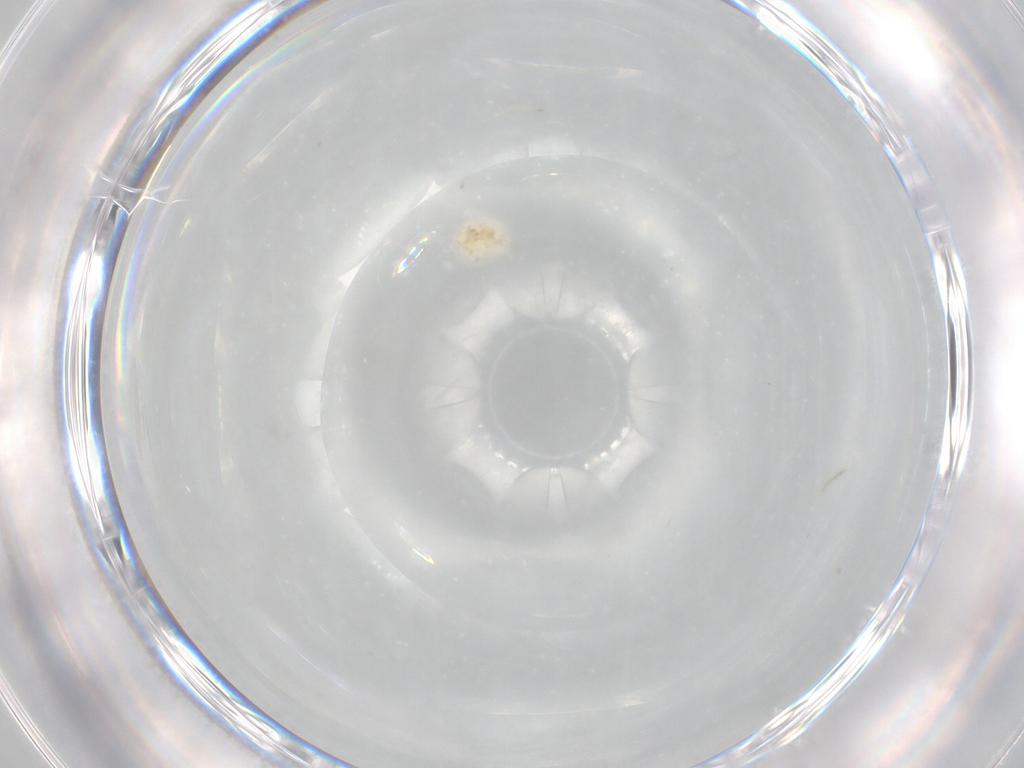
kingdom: Animalia
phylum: Arthropoda
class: Insecta
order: Diptera
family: Ceratopogonidae
